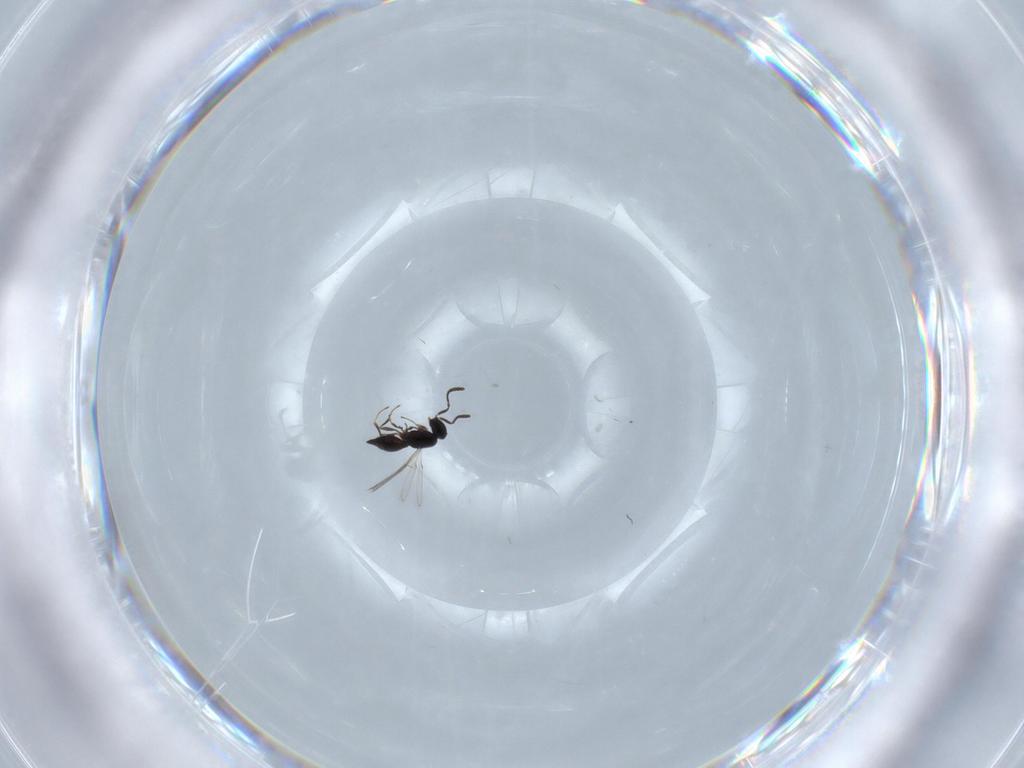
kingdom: Animalia
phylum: Arthropoda
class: Insecta
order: Hymenoptera
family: Scelionidae
